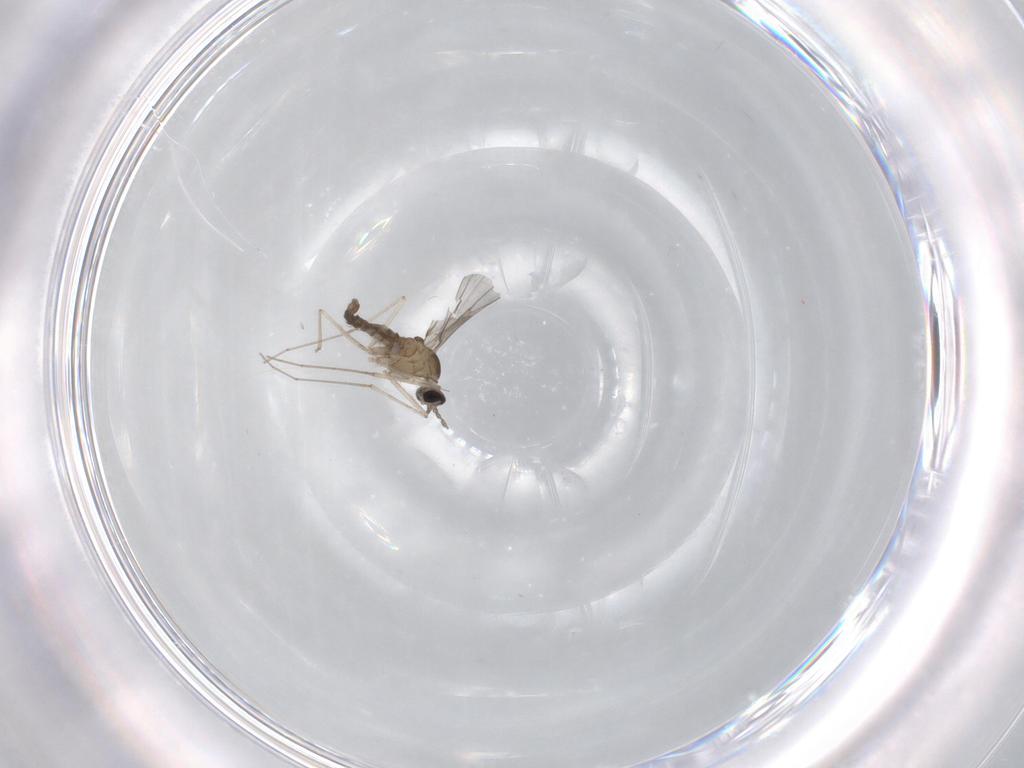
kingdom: Animalia
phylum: Arthropoda
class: Insecta
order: Diptera
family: Cecidomyiidae
